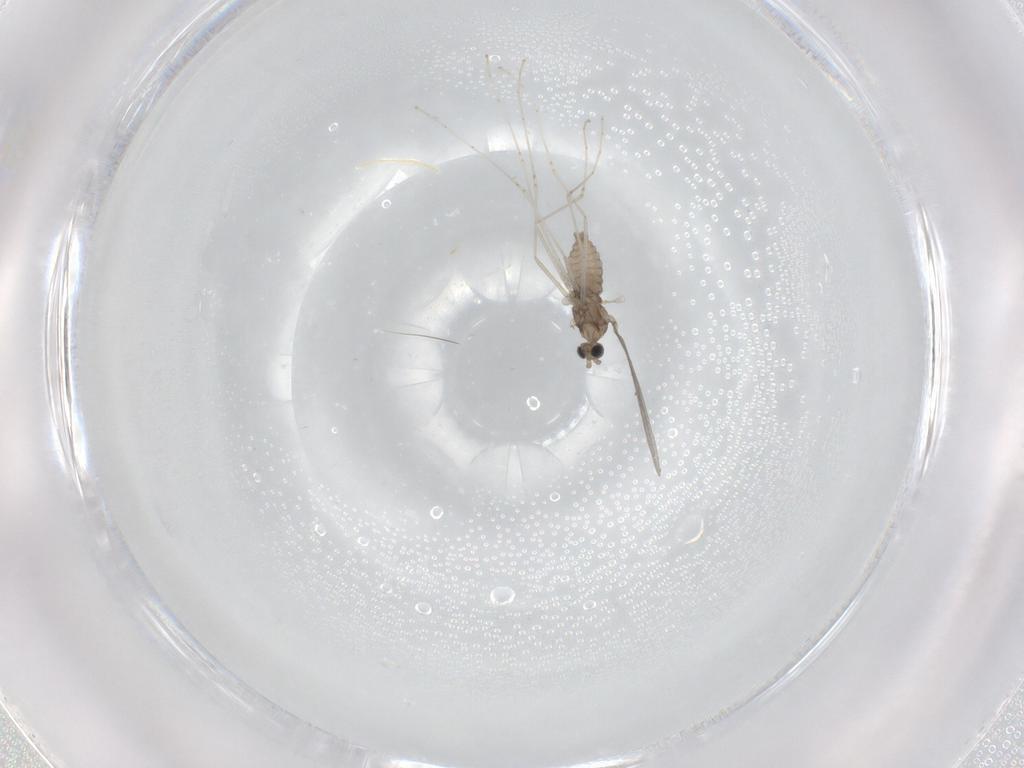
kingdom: Animalia
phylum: Arthropoda
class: Insecta
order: Diptera
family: Cecidomyiidae
